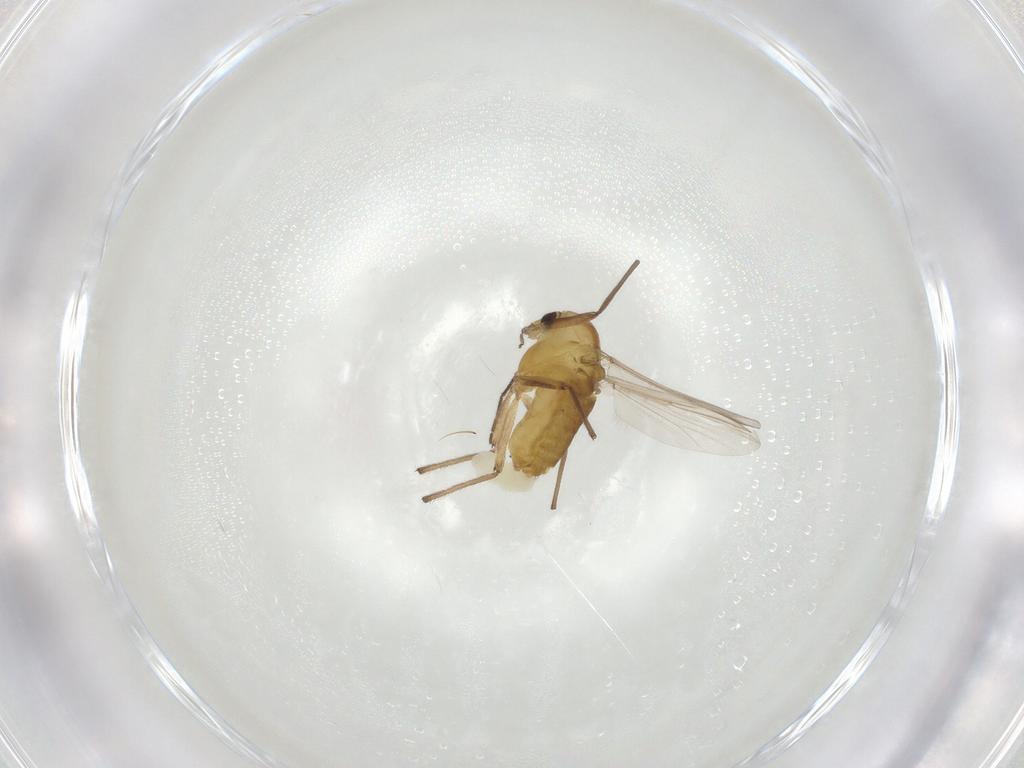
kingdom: Animalia
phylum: Arthropoda
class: Insecta
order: Diptera
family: Chironomidae
